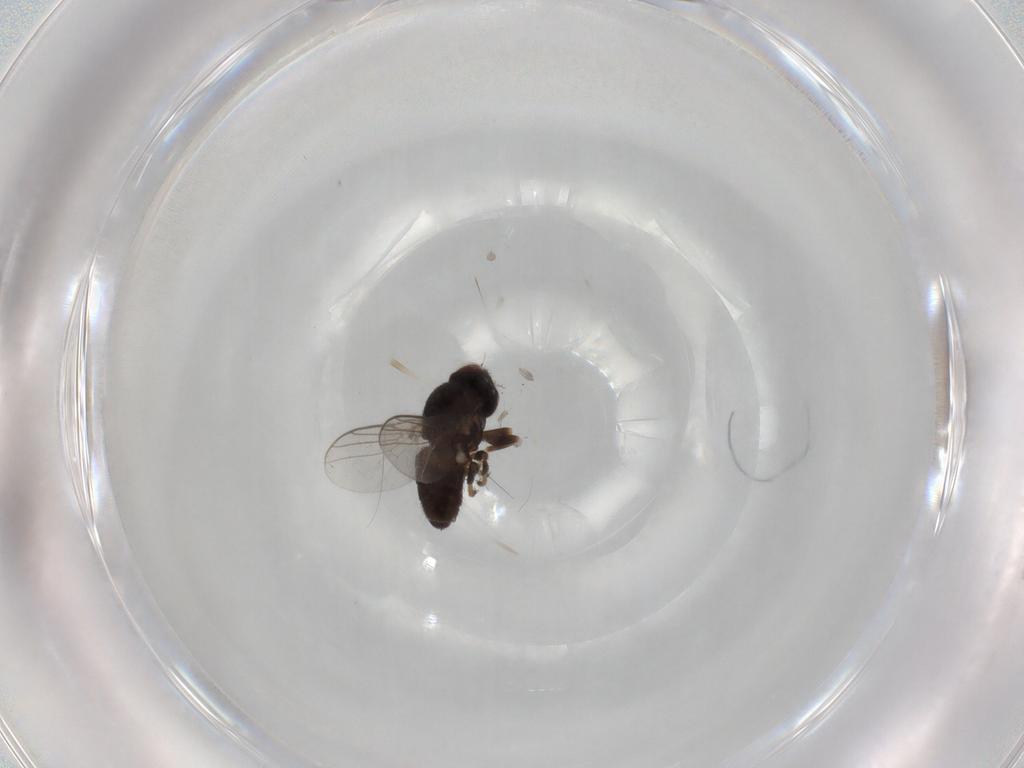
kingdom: Animalia
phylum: Arthropoda
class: Insecta
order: Diptera
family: Chloropidae
